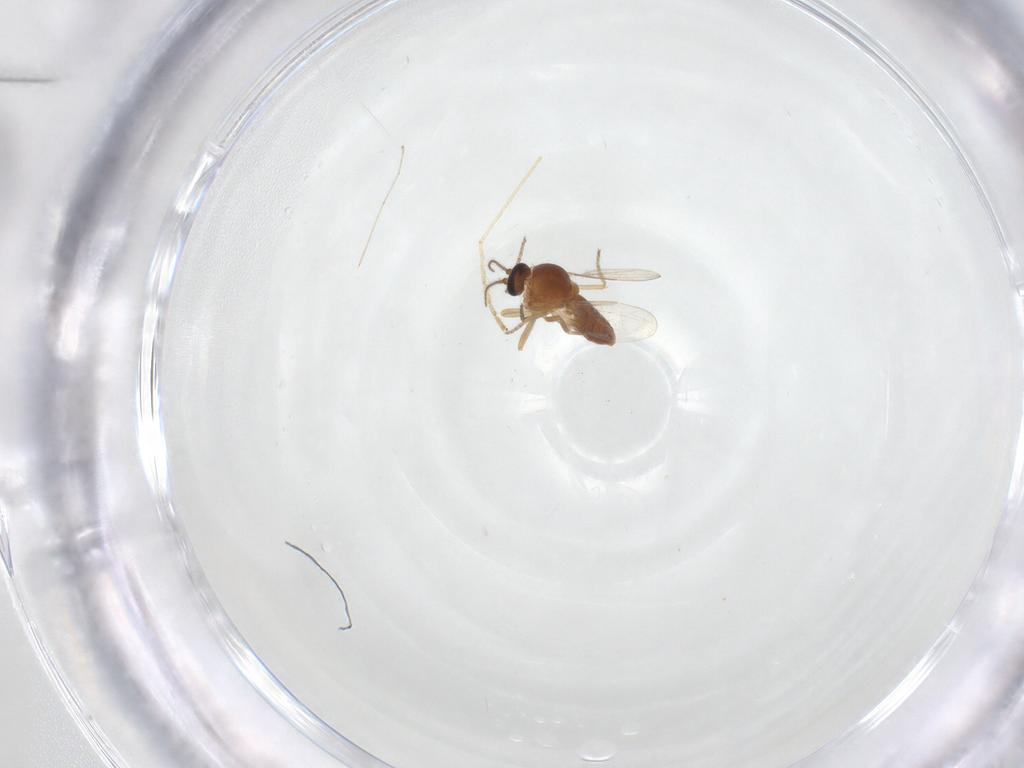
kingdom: Animalia
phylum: Arthropoda
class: Insecta
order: Diptera
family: Ceratopogonidae
